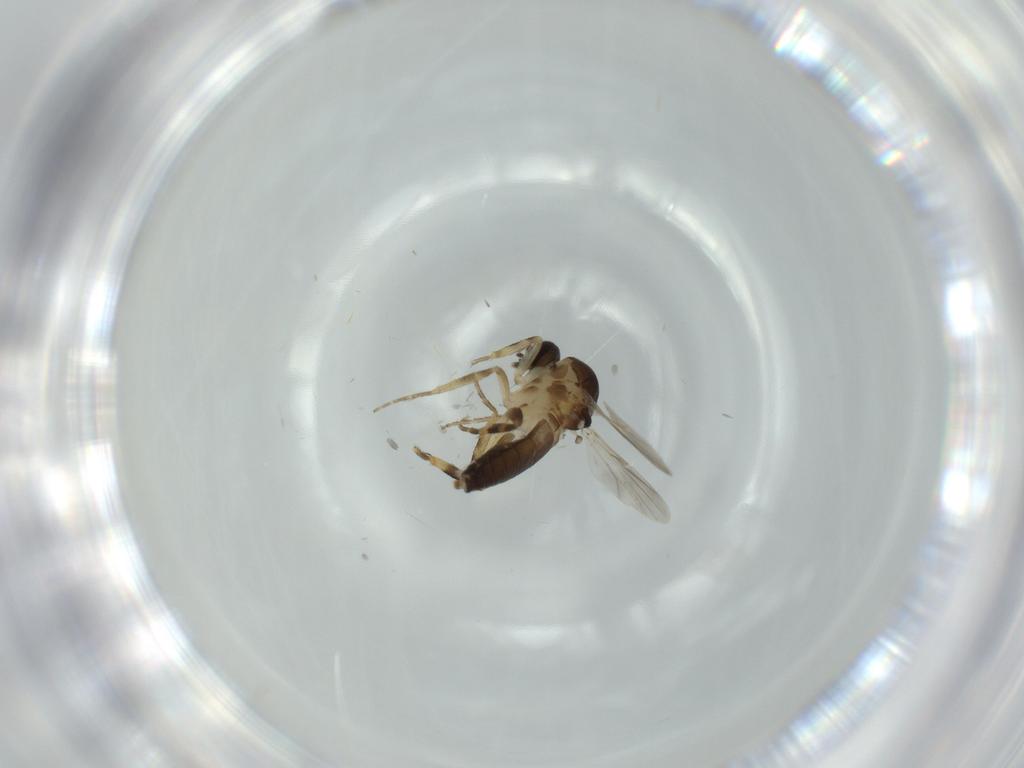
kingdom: Animalia
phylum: Arthropoda
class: Insecta
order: Diptera
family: Ceratopogonidae
